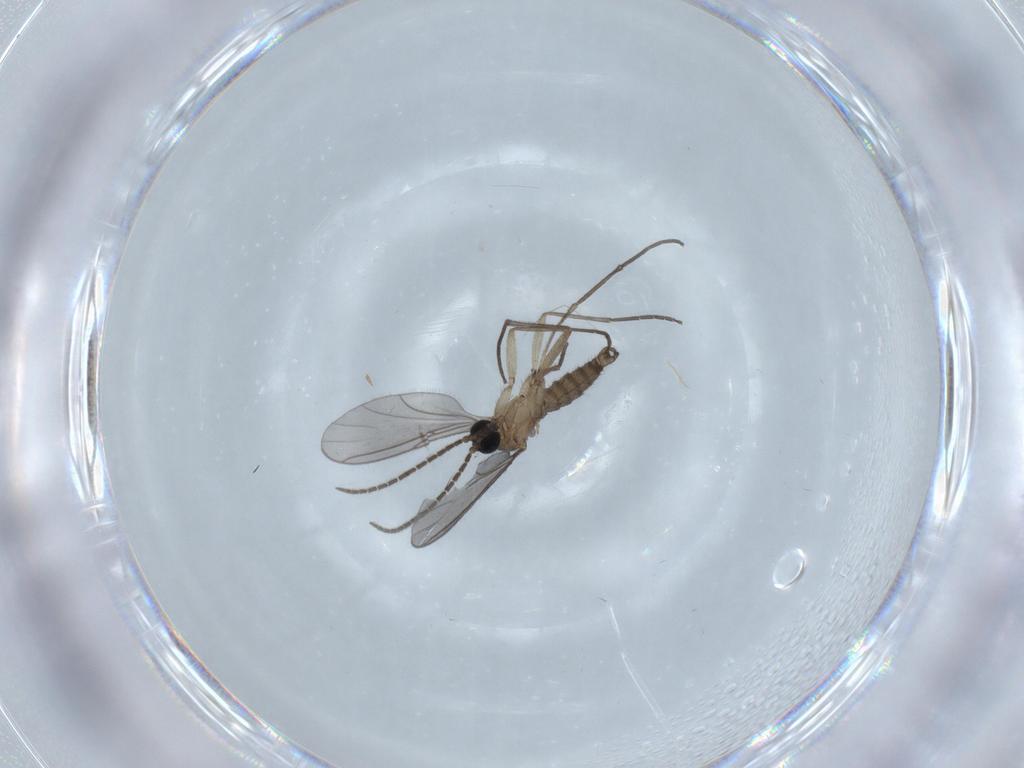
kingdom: Animalia
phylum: Arthropoda
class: Insecta
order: Diptera
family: Sciaridae
